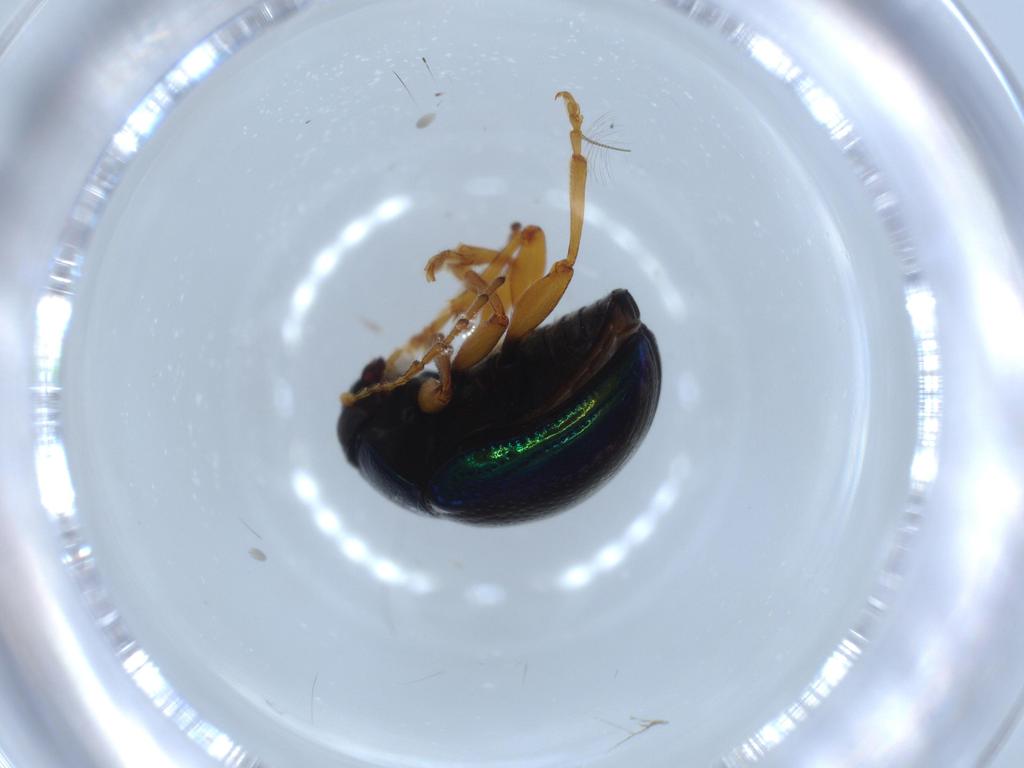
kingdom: Animalia
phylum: Arthropoda
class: Insecta
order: Coleoptera
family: Chrysomelidae
